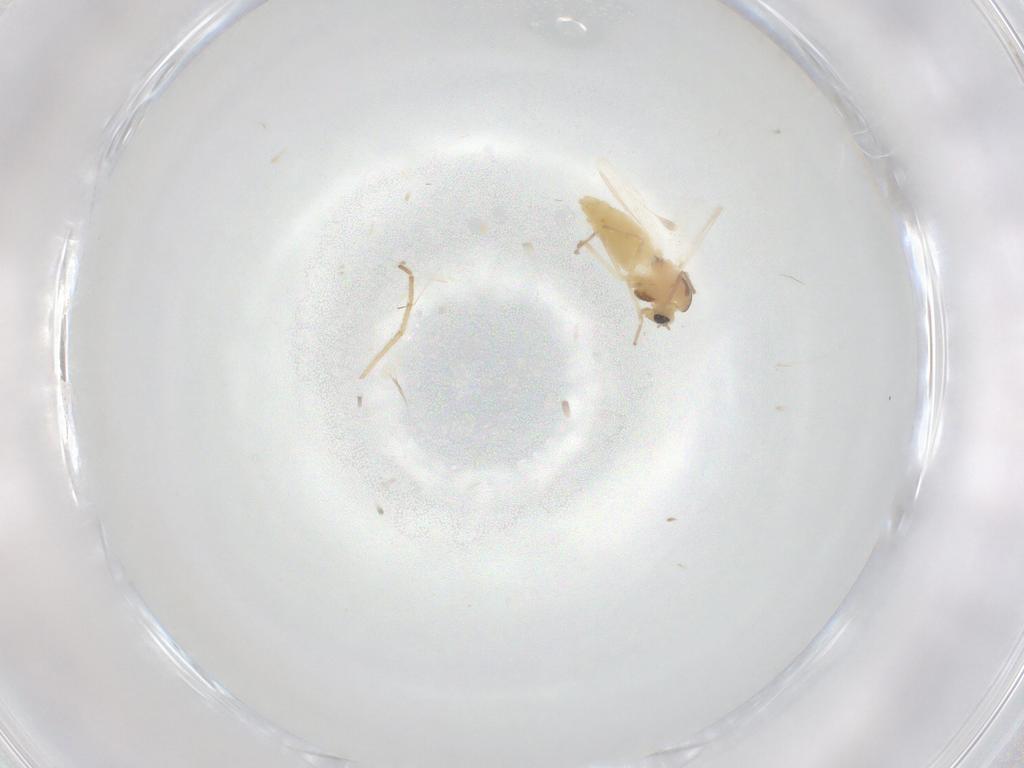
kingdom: Animalia
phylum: Arthropoda
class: Insecta
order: Diptera
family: Chironomidae
